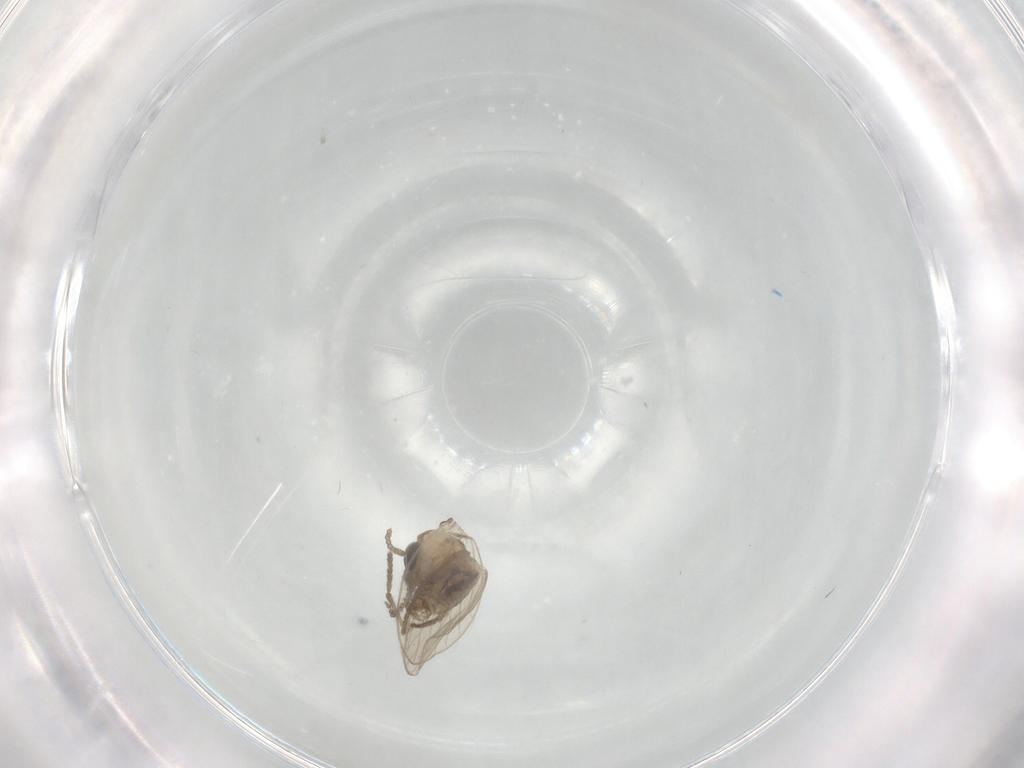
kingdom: Animalia
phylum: Arthropoda
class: Insecta
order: Diptera
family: Psychodidae
